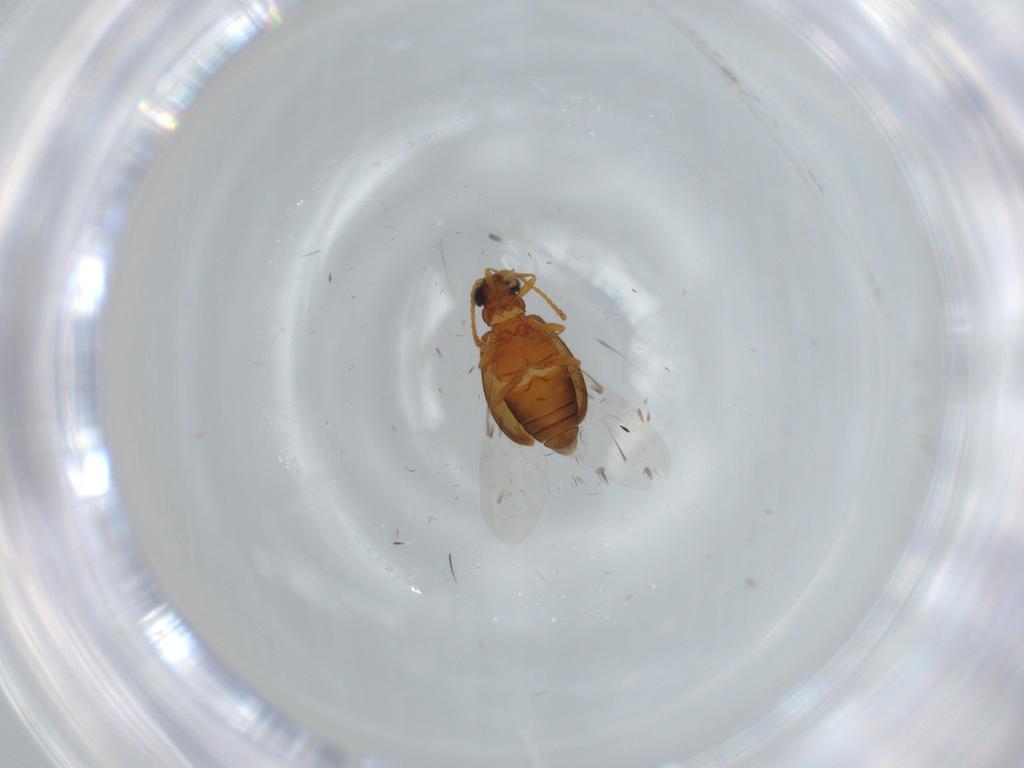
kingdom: Animalia
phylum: Arthropoda
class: Insecta
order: Coleoptera
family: Aderidae
